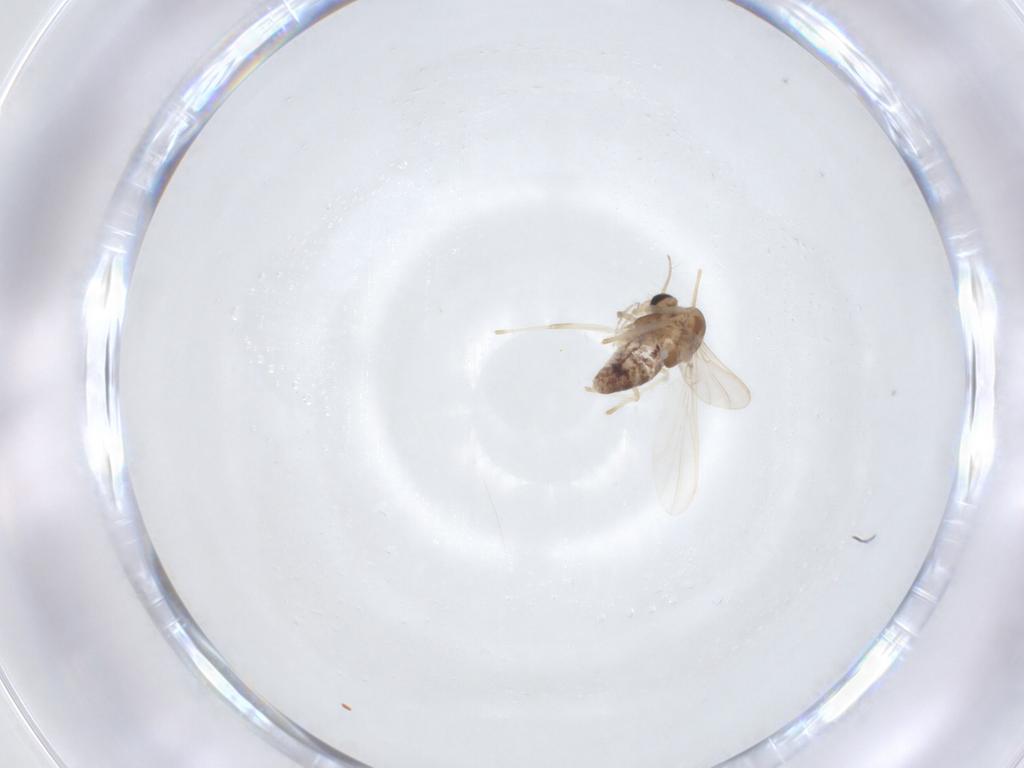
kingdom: Animalia
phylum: Arthropoda
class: Insecta
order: Diptera
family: Chironomidae
